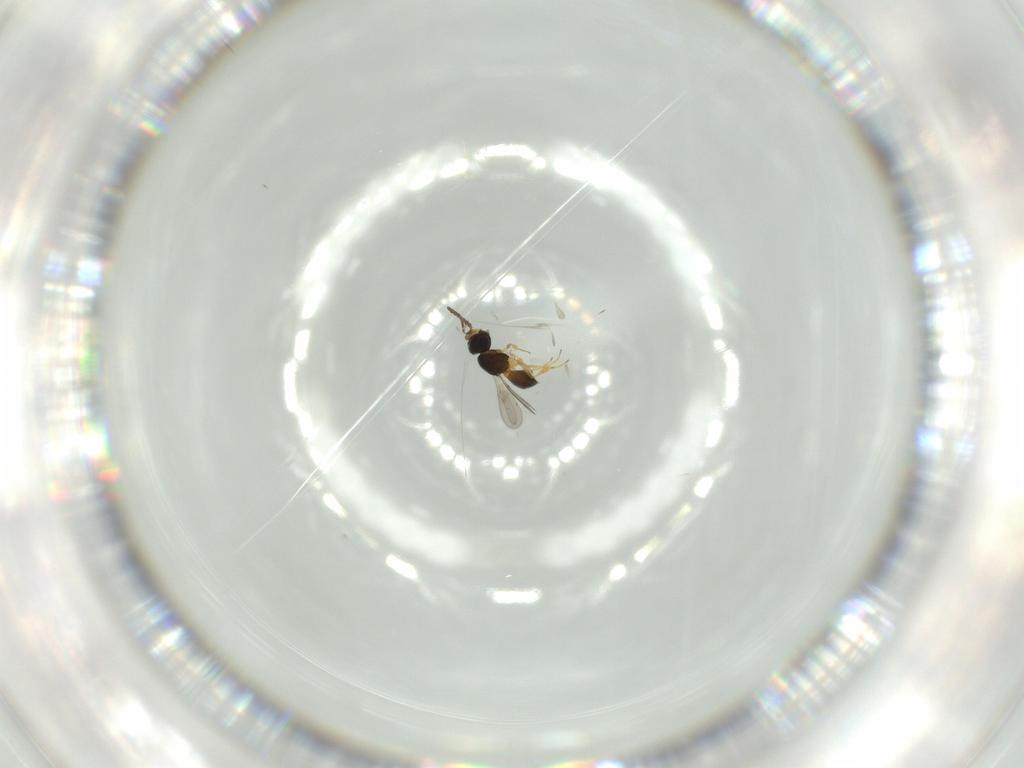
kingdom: Animalia
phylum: Arthropoda
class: Insecta
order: Hymenoptera
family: Scelionidae
